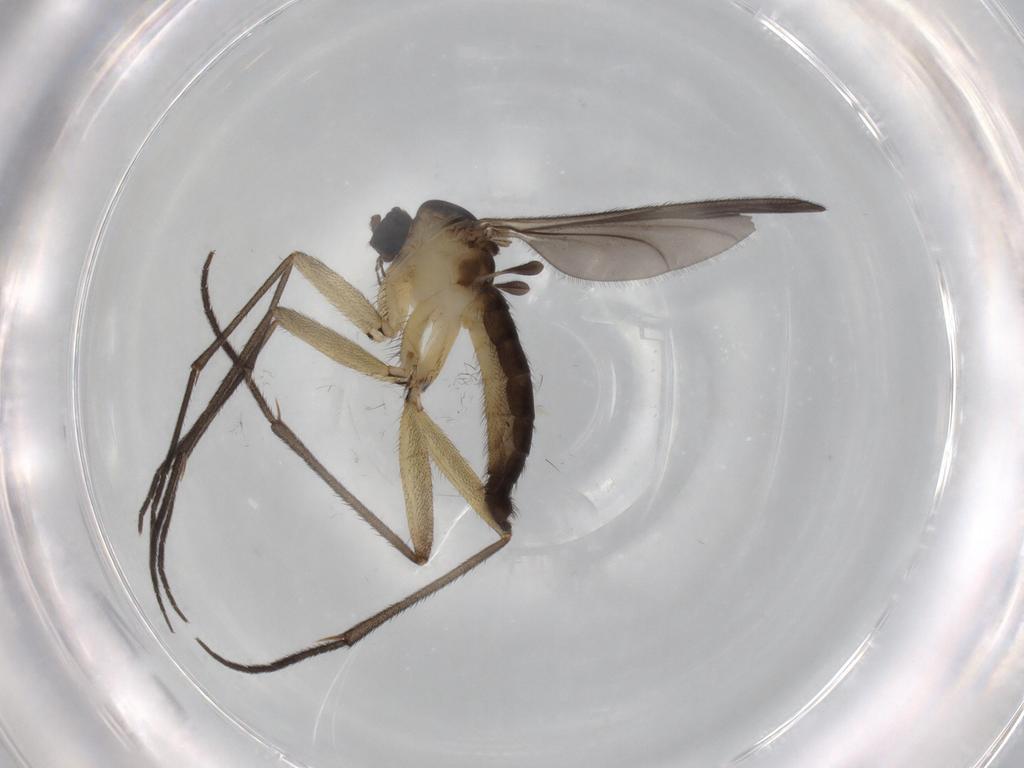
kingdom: Animalia
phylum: Arthropoda
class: Insecta
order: Diptera
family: Sciaridae
